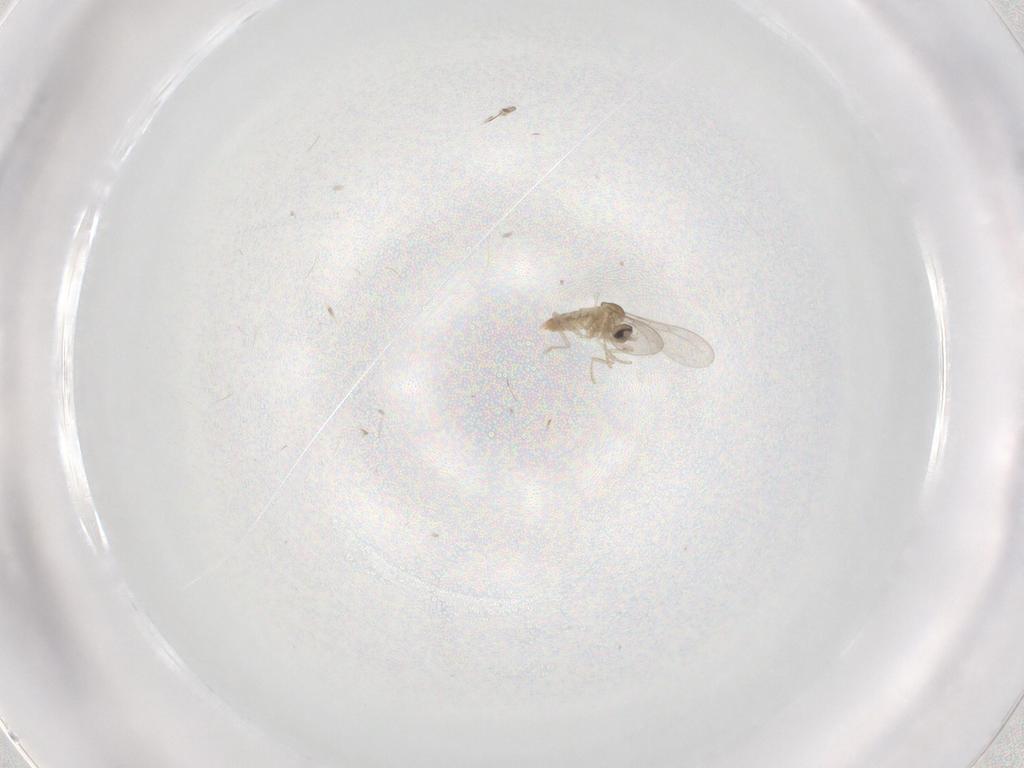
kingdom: Animalia
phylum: Arthropoda
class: Insecta
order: Diptera
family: Cecidomyiidae
